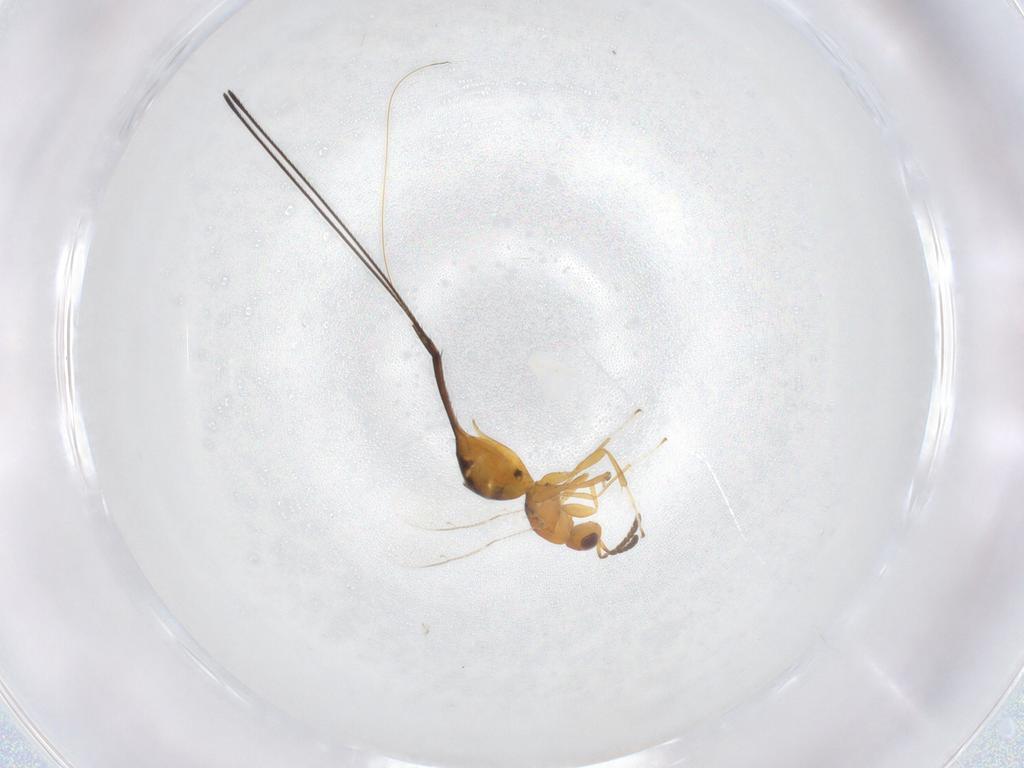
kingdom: Animalia
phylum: Arthropoda
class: Insecta
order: Hymenoptera
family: Pteromalidae
